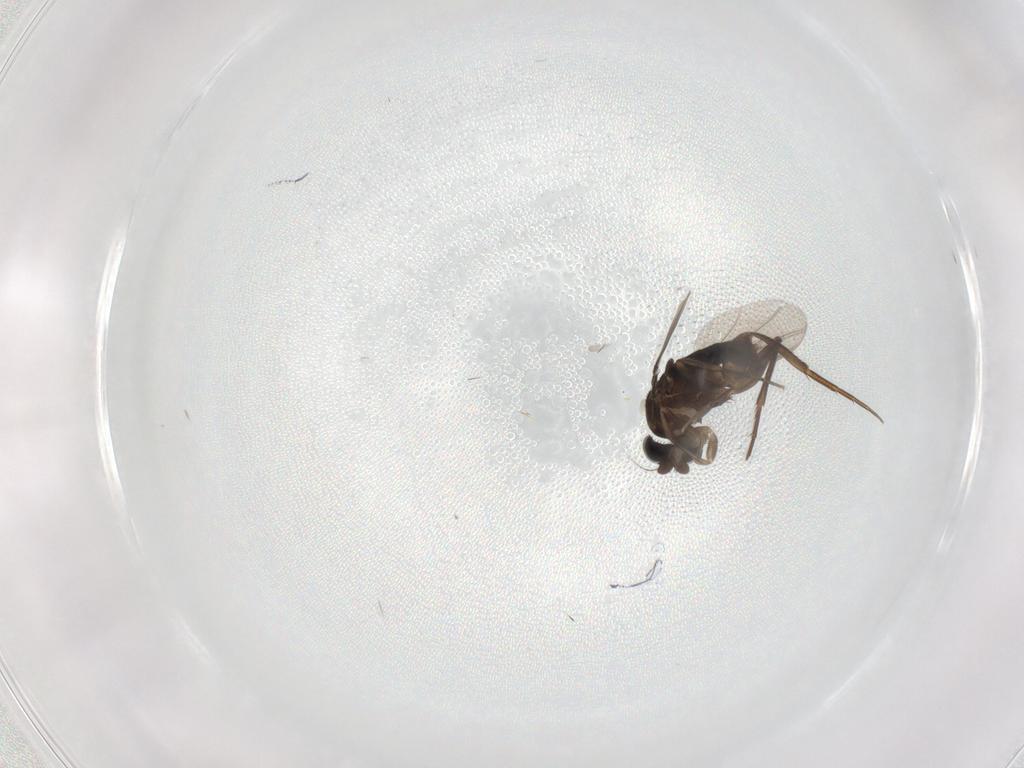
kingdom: Animalia
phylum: Arthropoda
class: Insecta
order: Diptera
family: Phoridae
